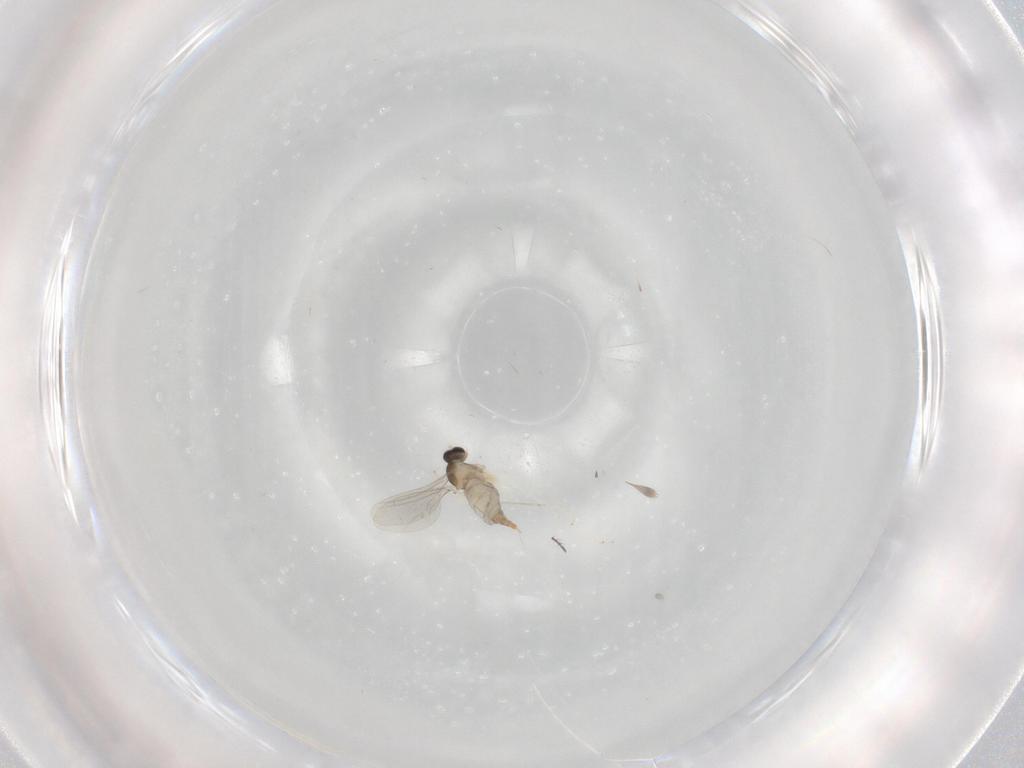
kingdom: Animalia
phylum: Arthropoda
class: Insecta
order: Diptera
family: Cecidomyiidae
